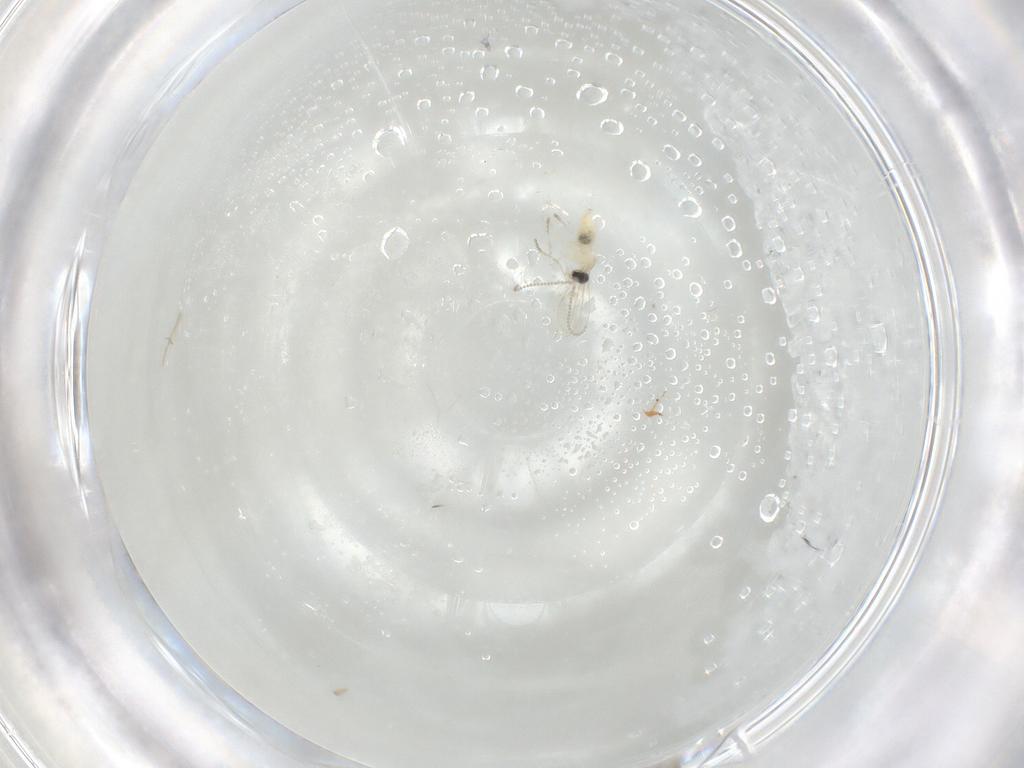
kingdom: Animalia
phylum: Arthropoda
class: Insecta
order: Diptera
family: Cecidomyiidae
